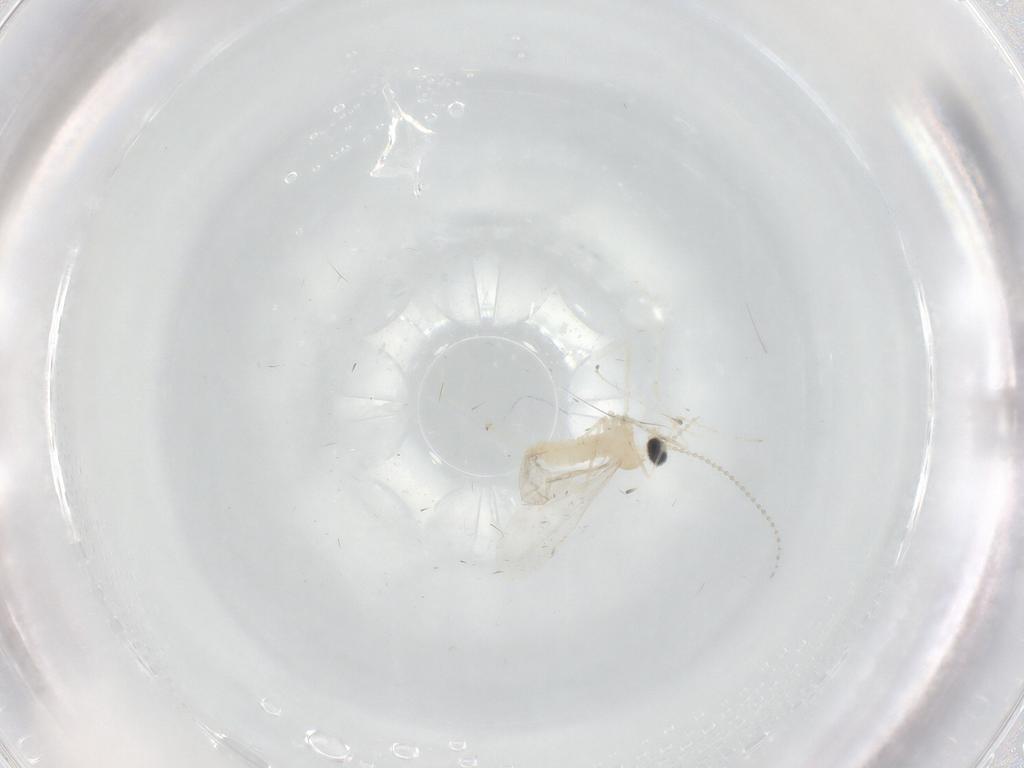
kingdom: Animalia
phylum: Arthropoda
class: Insecta
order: Diptera
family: Cecidomyiidae
